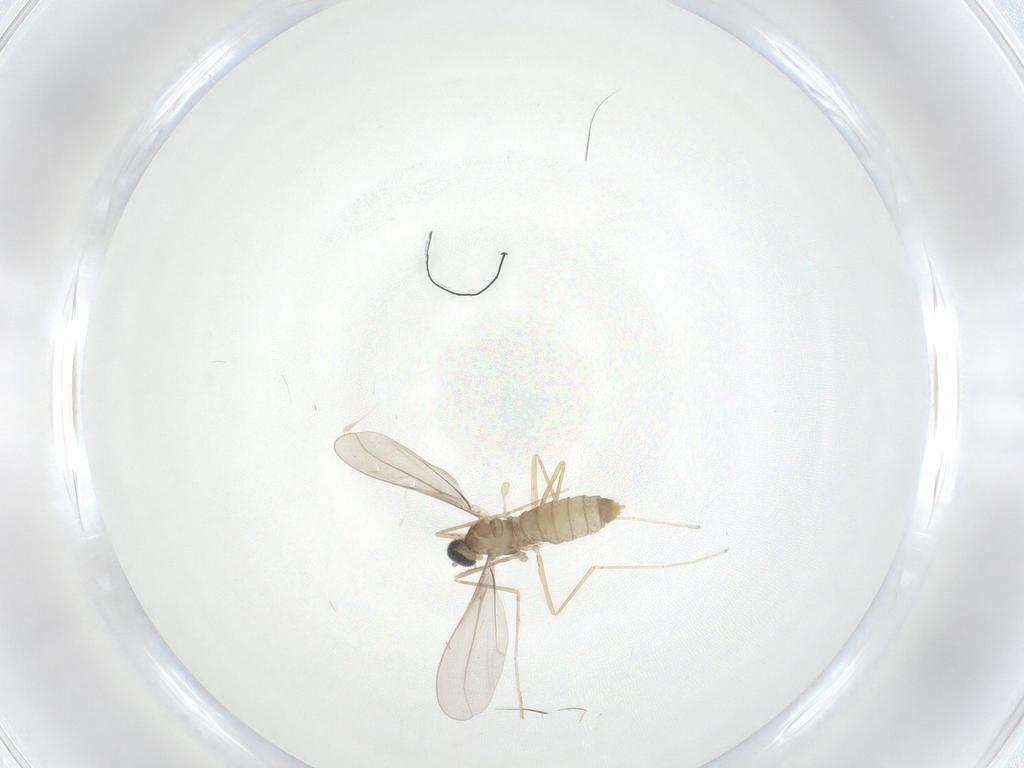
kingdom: Animalia
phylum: Arthropoda
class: Insecta
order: Diptera
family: Cecidomyiidae
